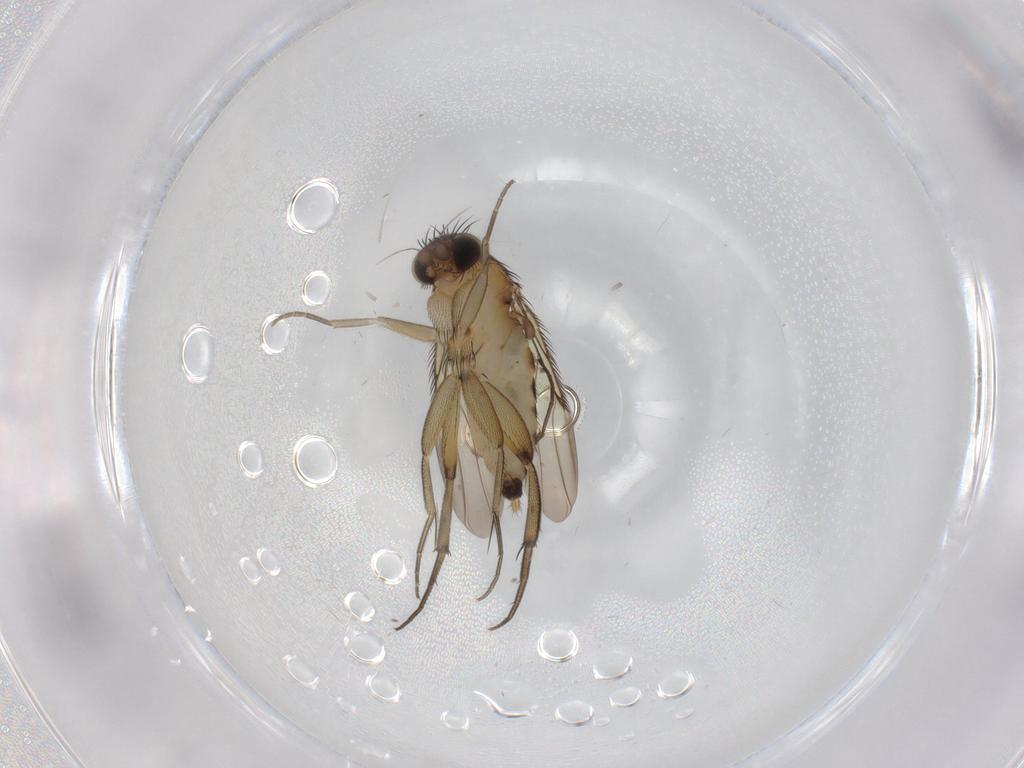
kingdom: Animalia
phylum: Arthropoda
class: Insecta
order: Diptera
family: Phoridae
